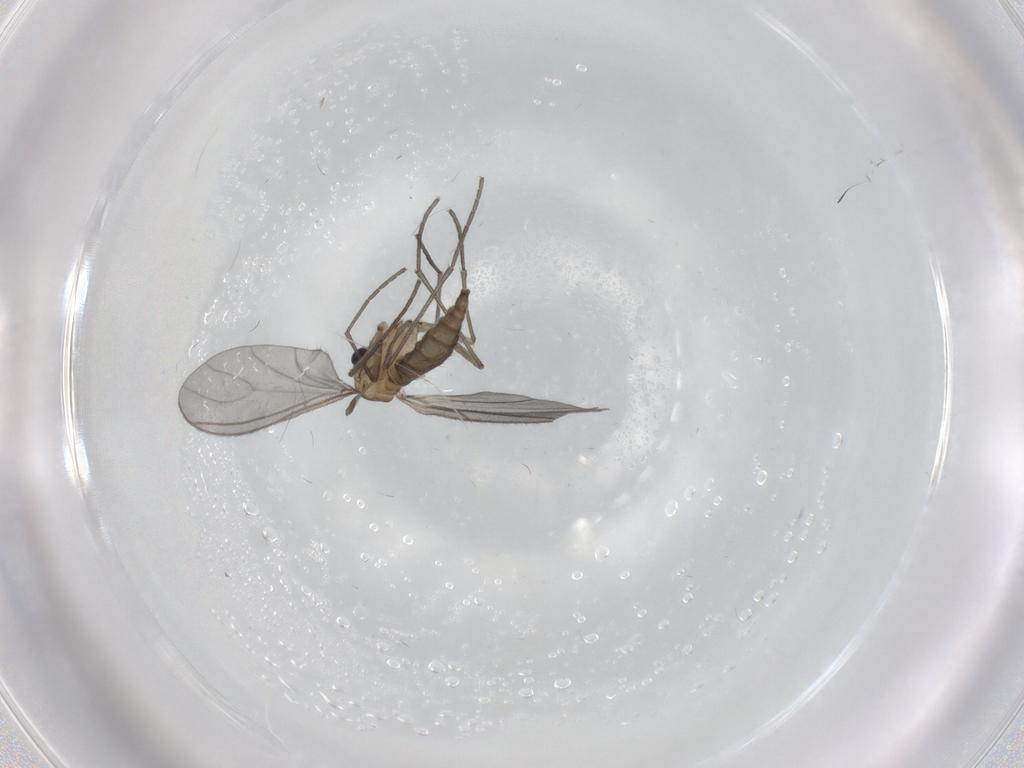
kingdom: Animalia
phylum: Arthropoda
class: Insecta
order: Diptera
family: Sciaridae
